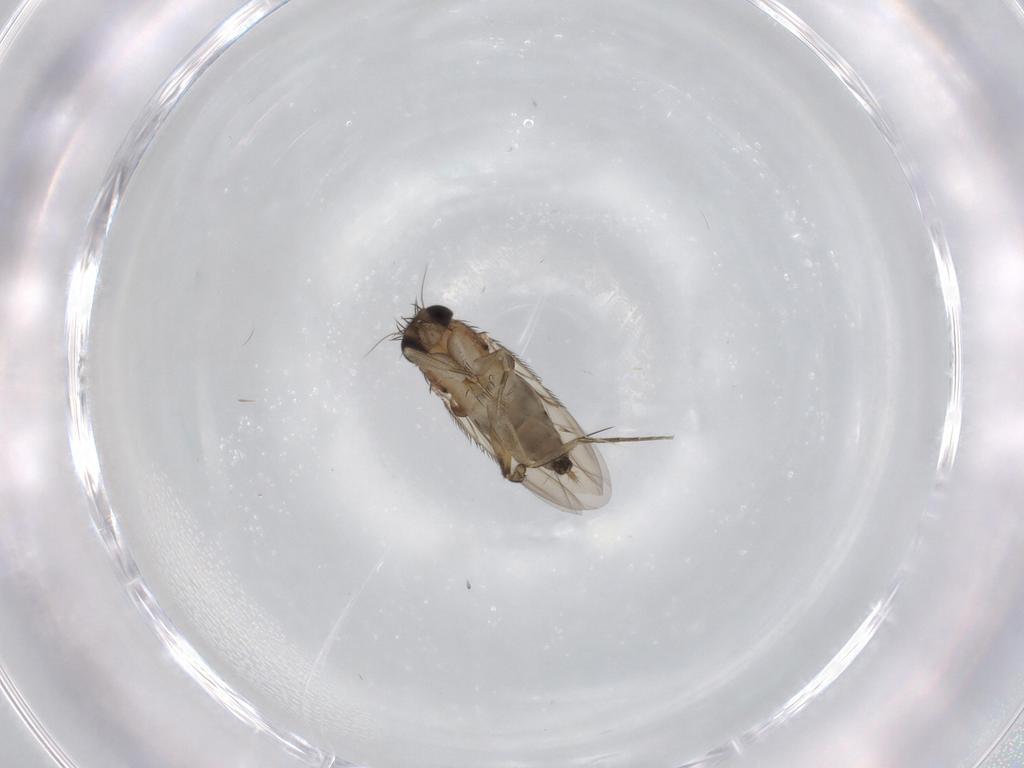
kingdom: Animalia
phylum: Arthropoda
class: Insecta
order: Diptera
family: Phoridae
